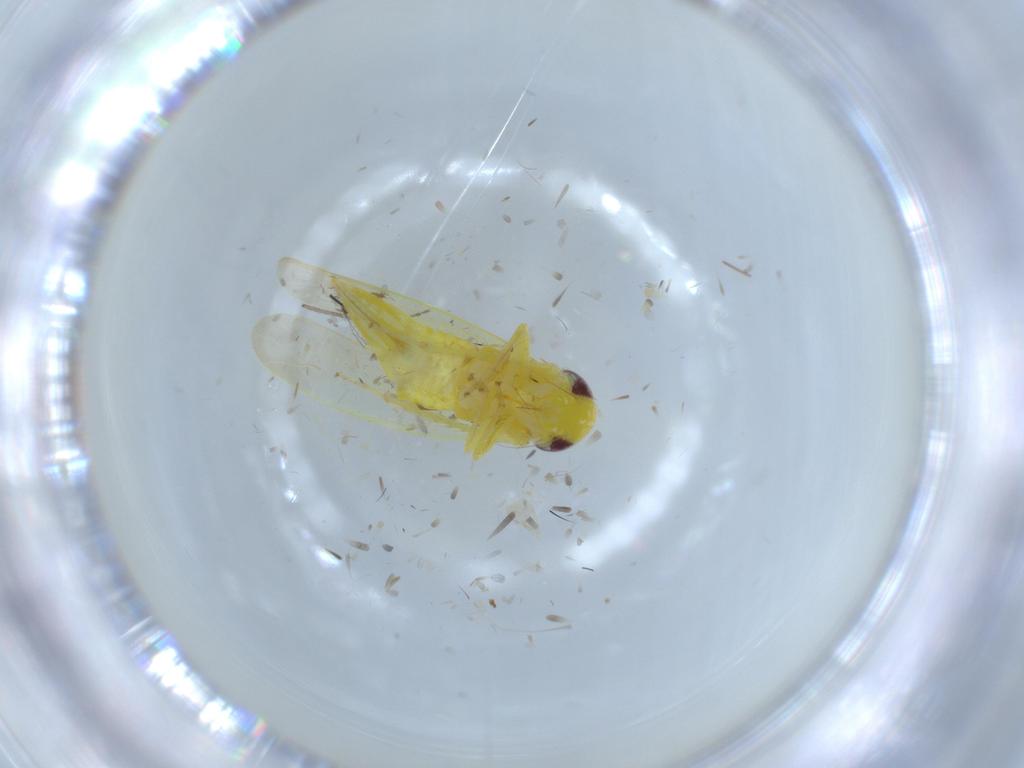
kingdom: Animalia
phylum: Arthropoda
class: Insecta
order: Hemiptera
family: Cicadellidae
